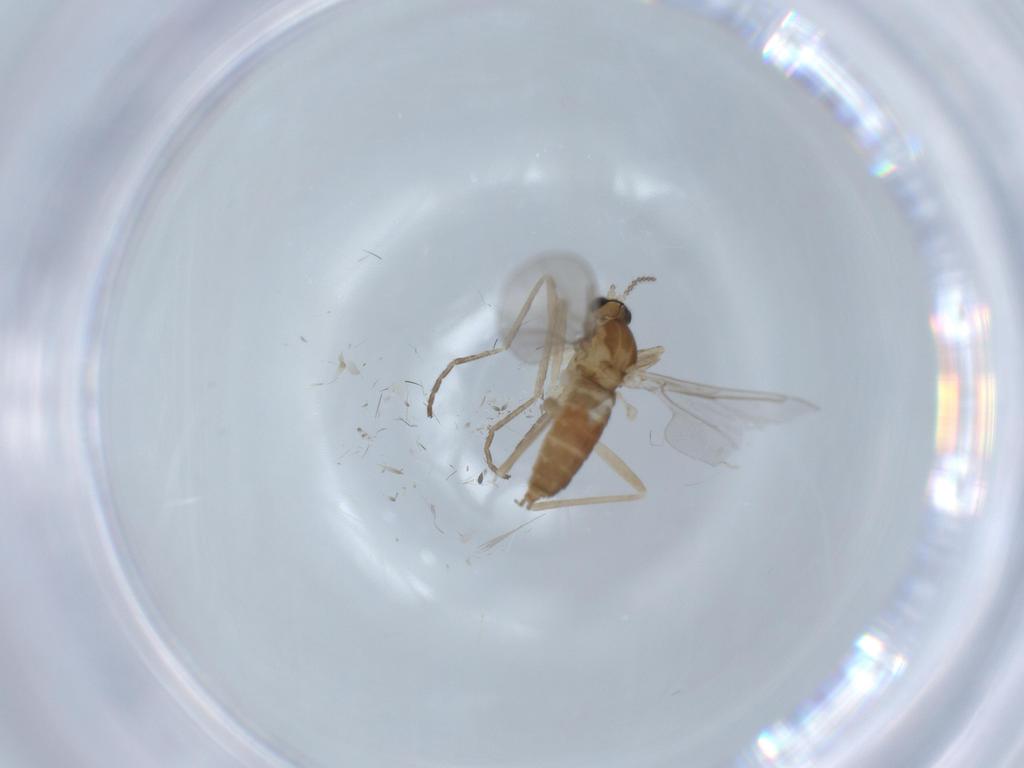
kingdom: Animalia
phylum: Arthropoda
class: Insecta
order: Diptera
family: Cecidomyiidae
